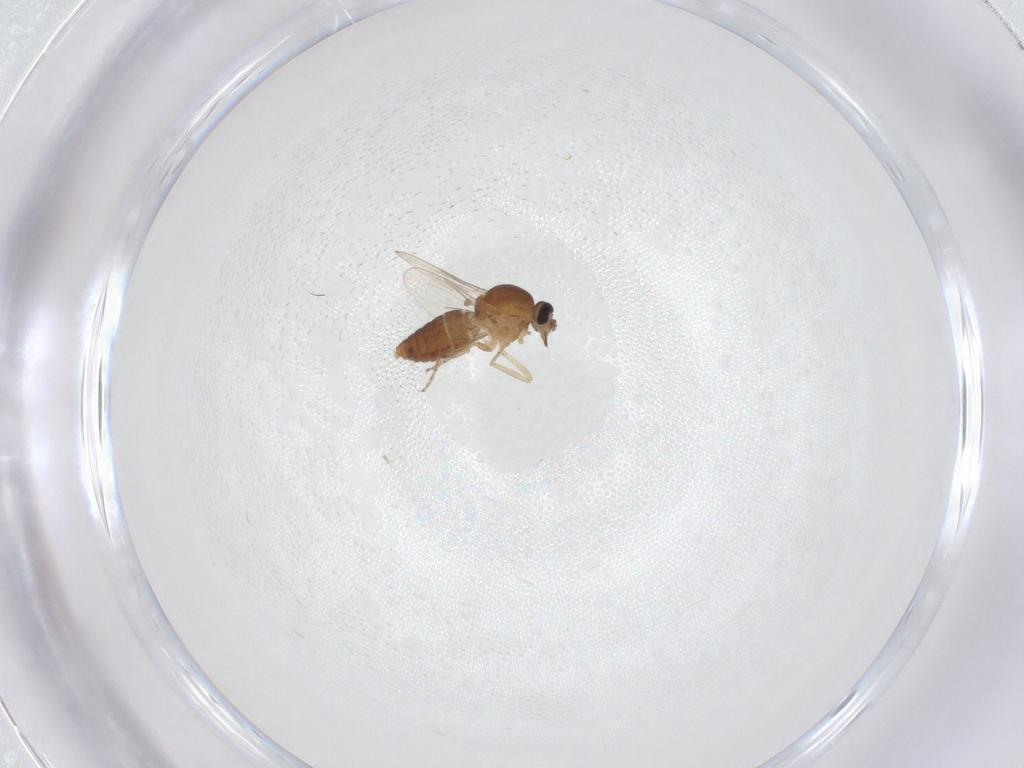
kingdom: Animalia
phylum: Arthropoda
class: Insecta
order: Diptera
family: Ceratopogonidae
